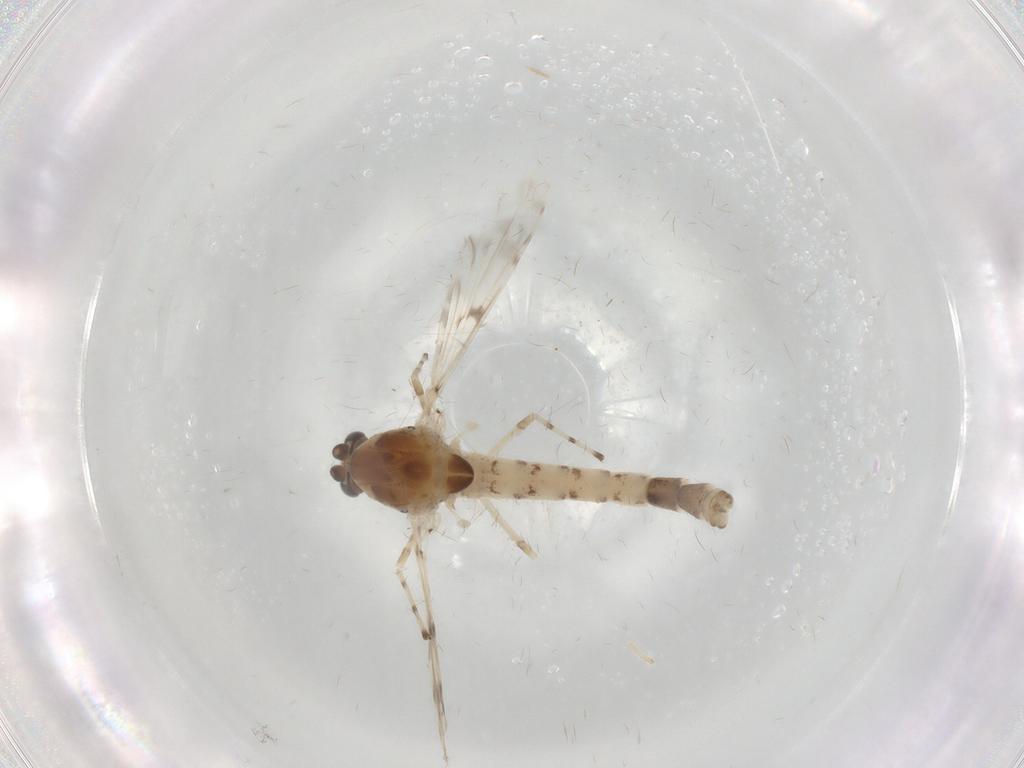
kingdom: Animalia
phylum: Arthropoda
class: Insecta
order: Diptera
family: Chironomidae
